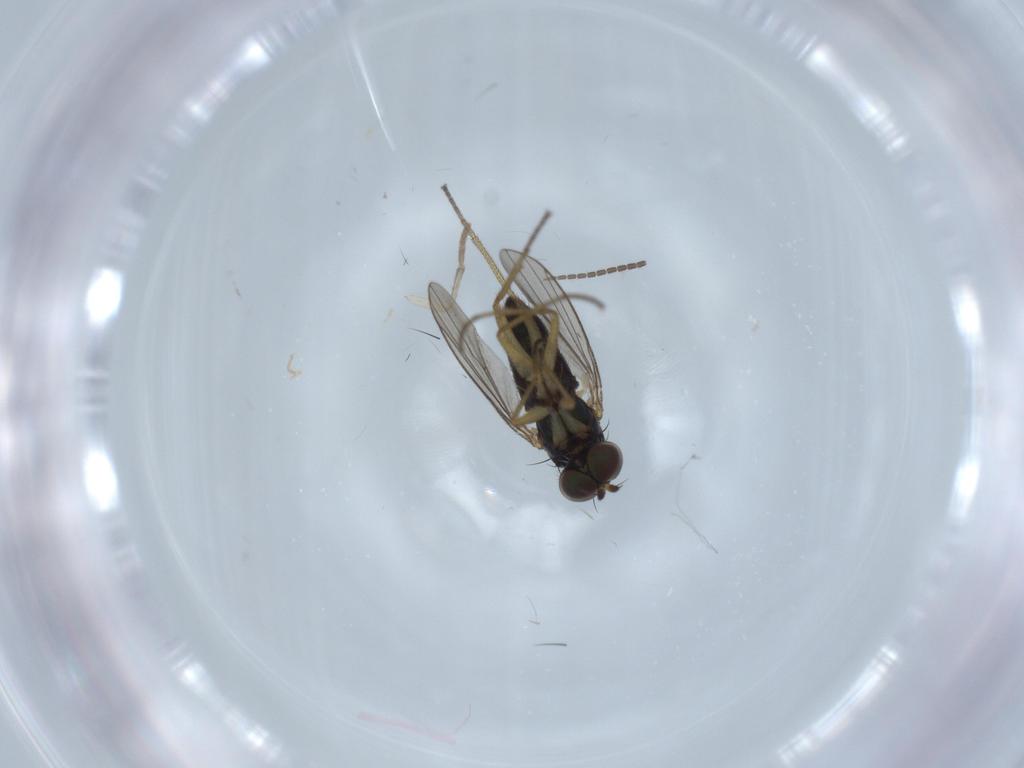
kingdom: Animalia
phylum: Arthropoda
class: Insecta
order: Diptera
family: Sciaridae
